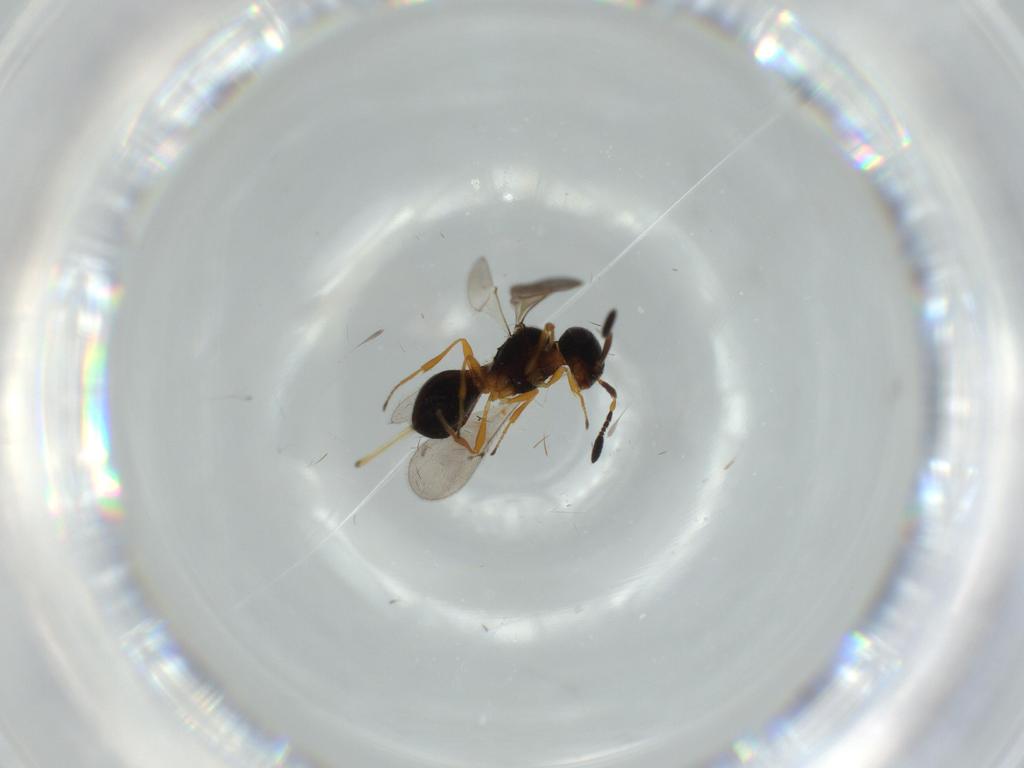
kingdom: Animalia
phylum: Arthropoda
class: Insecta
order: Hymenoptera
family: Scelionidae
